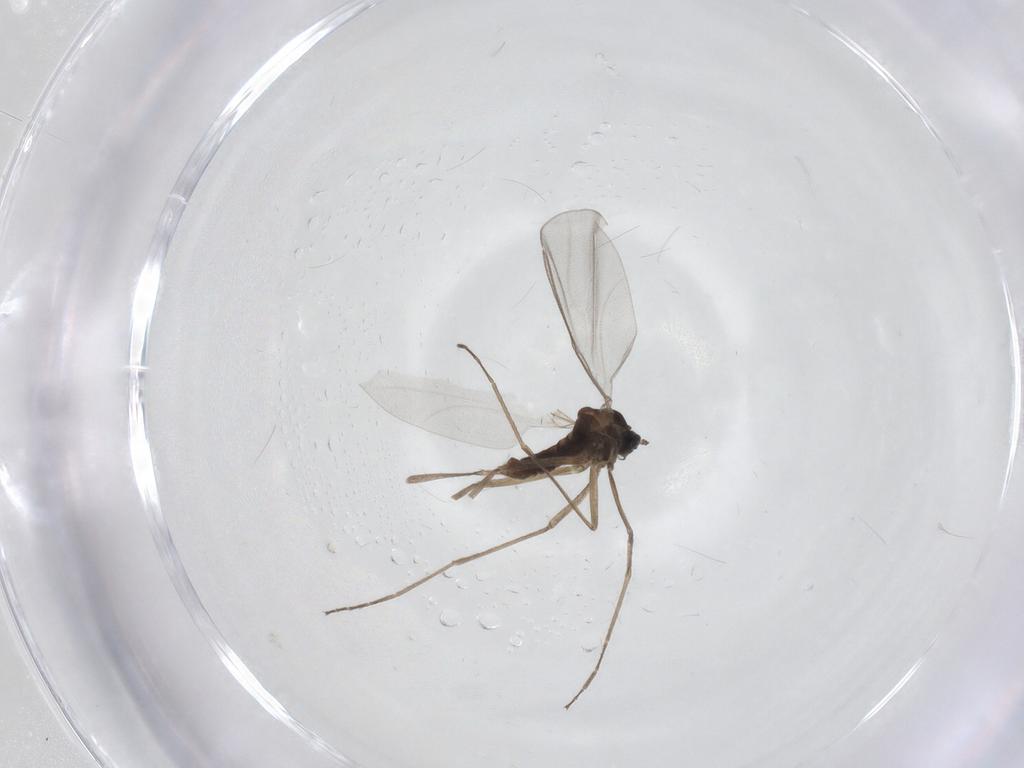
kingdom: Animalia
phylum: Arthropoda
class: Insecta
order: Diptera
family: Cecidomyiidae
